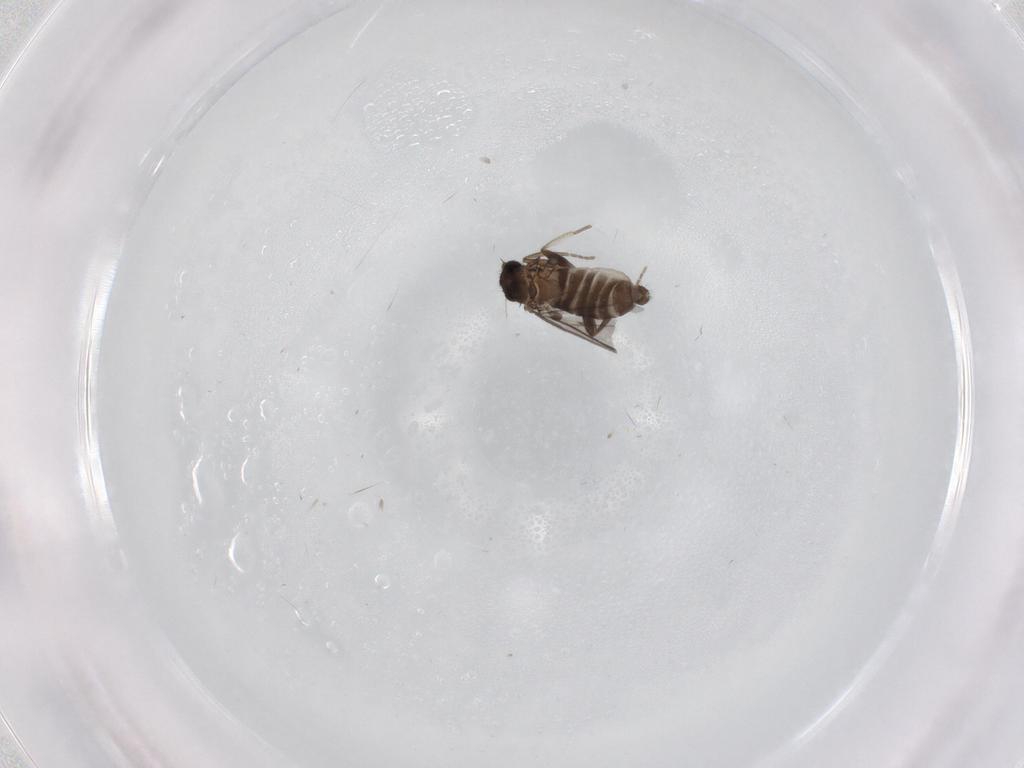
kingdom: Animalia
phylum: Arthropoda
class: Insecta
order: Diptera
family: Phoridae
